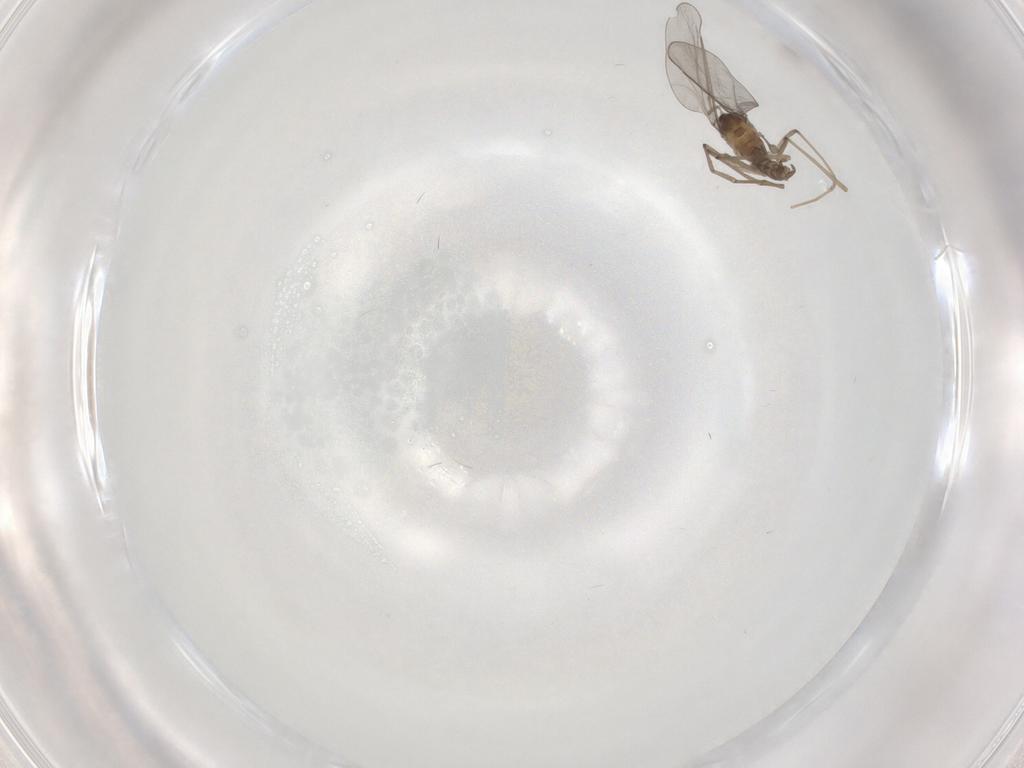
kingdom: Animalia
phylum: Arthropoda
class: Insecta
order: Diptera
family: Cecidomyiidae
